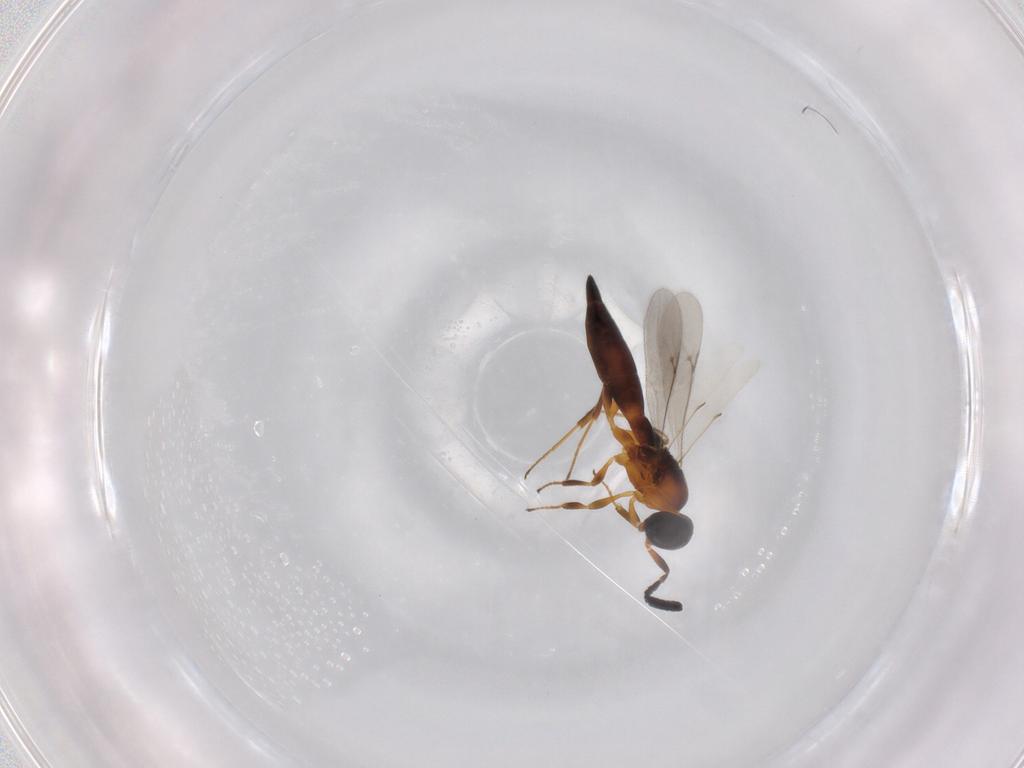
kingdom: Animalia
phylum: Arthropoda
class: Insecta
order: Hymenoptera
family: Scelionidae
